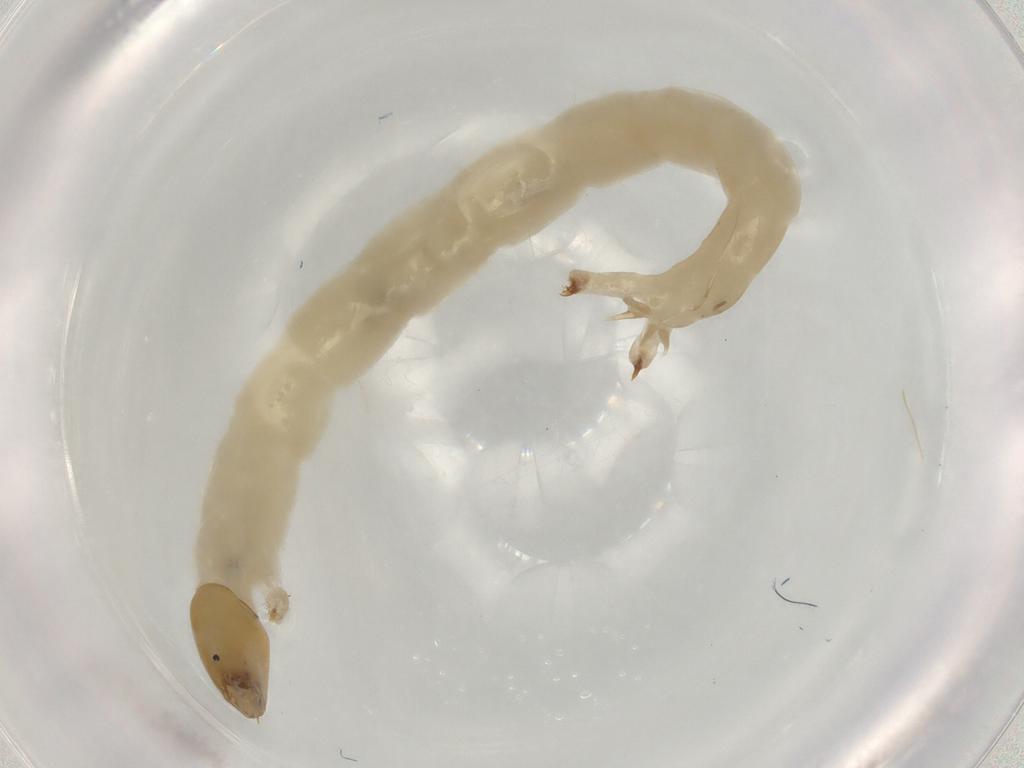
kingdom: Animalia
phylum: Arthropoda
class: Insecta
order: Diptera
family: Chironomidae
